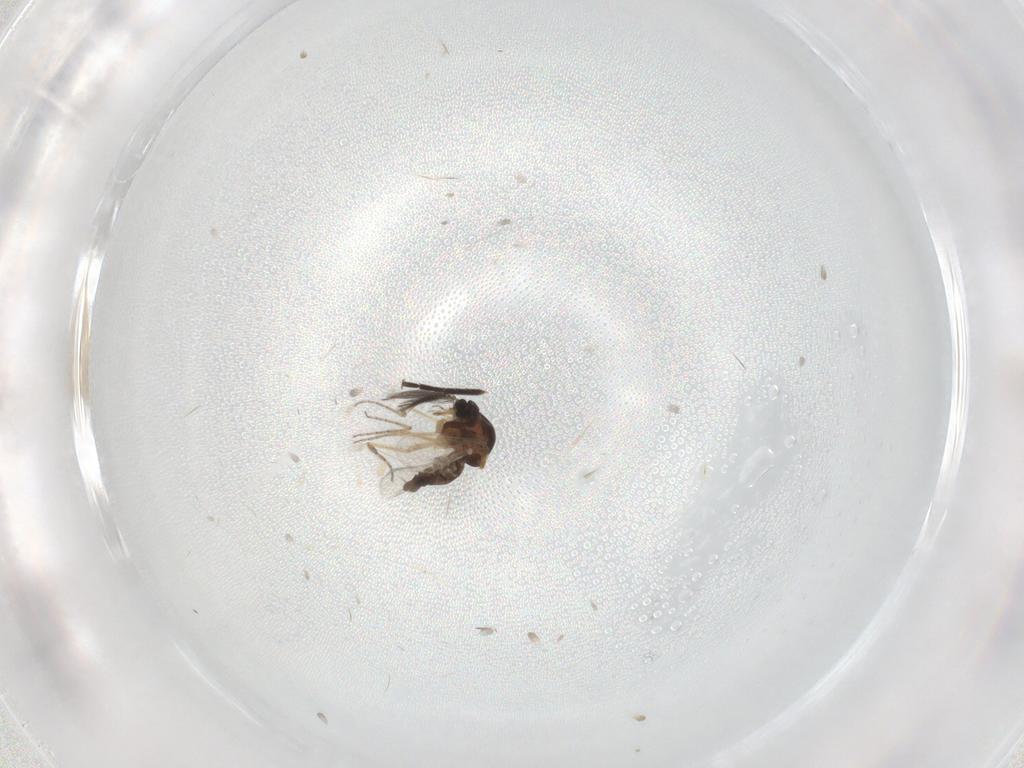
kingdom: Animalia
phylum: Arthropoda
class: Insecta
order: Diptera
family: Ceratopogonidae
